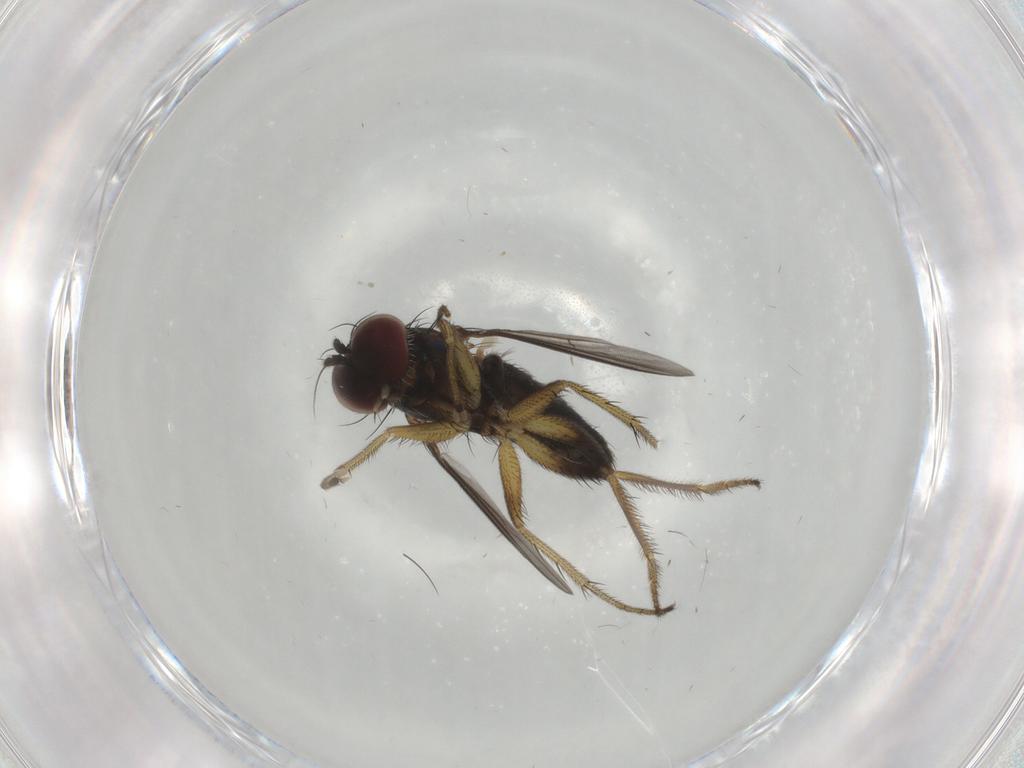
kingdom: Animalia
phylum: Arthropoda
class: Insecta
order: Diptera
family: Dolichopodidae
